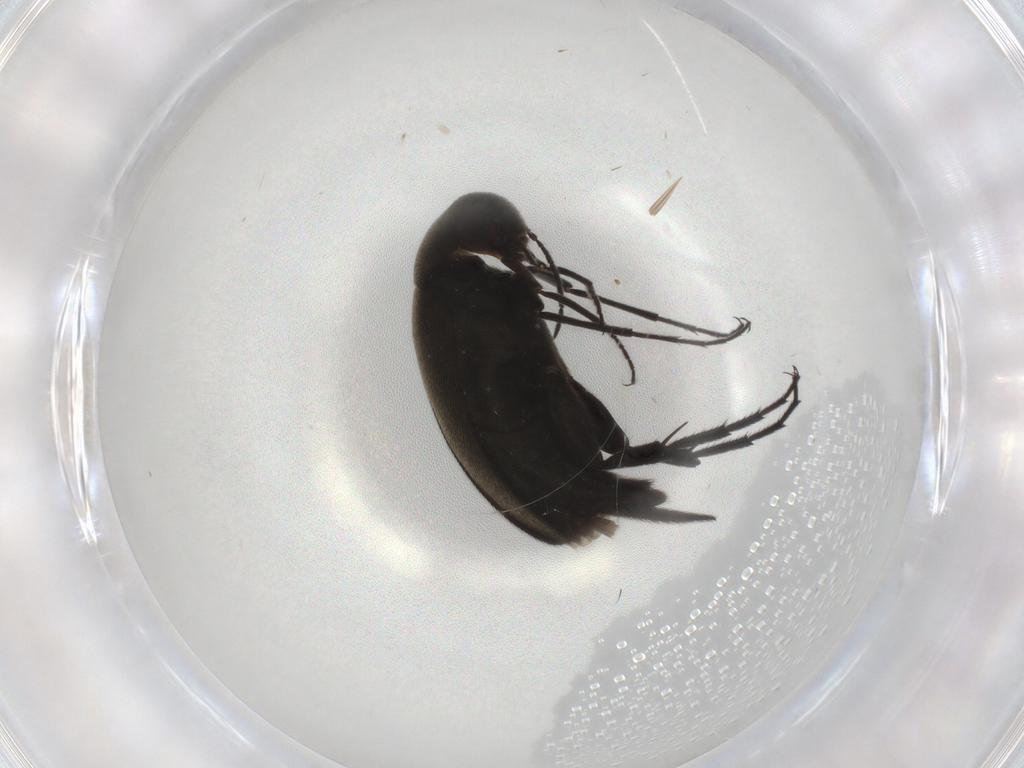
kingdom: Animalia
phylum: Arthropoda
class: Insecta
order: Coleoptera
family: Mordellidae
